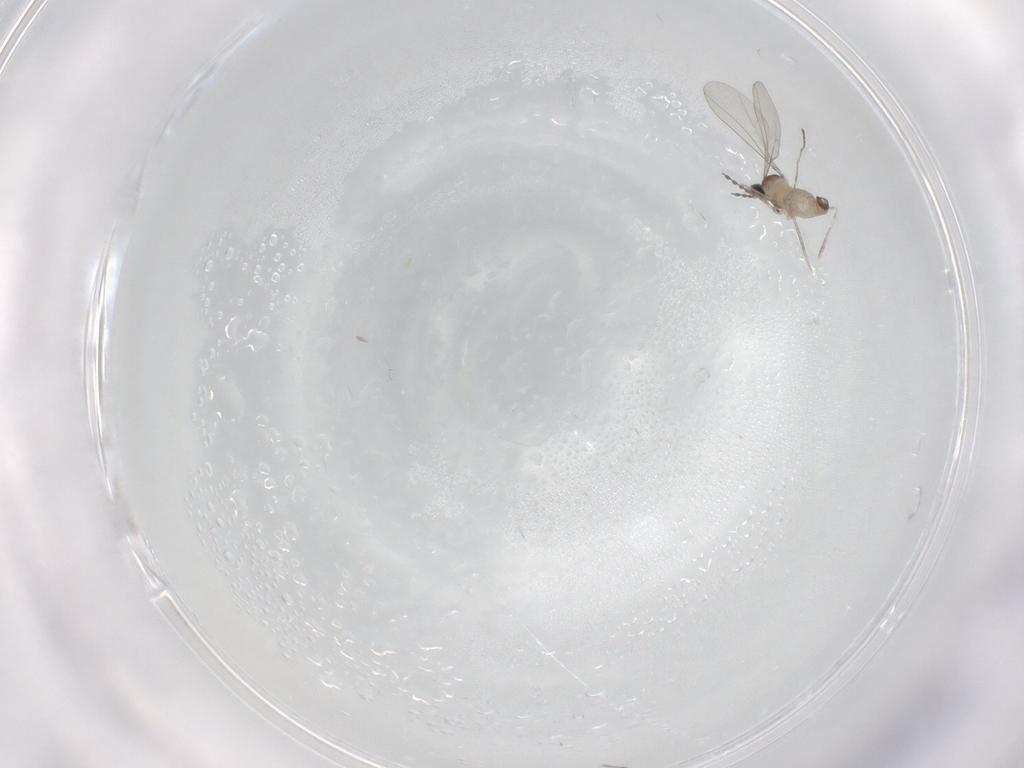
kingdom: Animalia
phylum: Arthropoda
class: Insecta
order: Diptera
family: Cecidomyiidae
